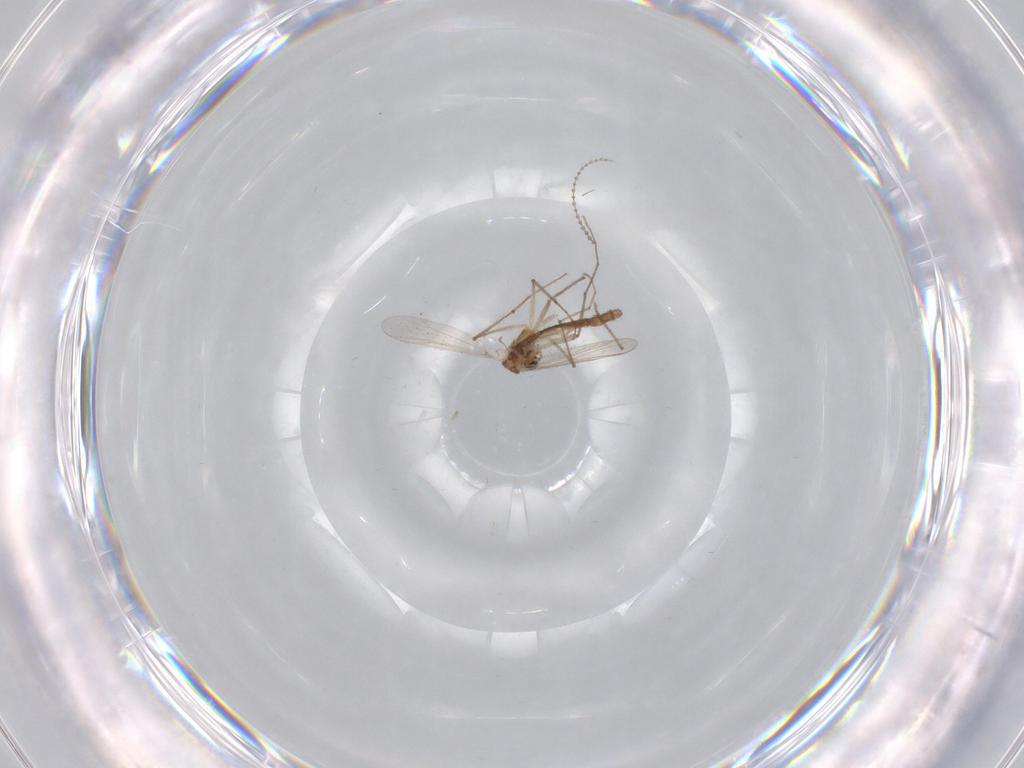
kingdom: Animalia
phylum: Arthropoda
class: Insecta
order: Diptera
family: Chironomidae
